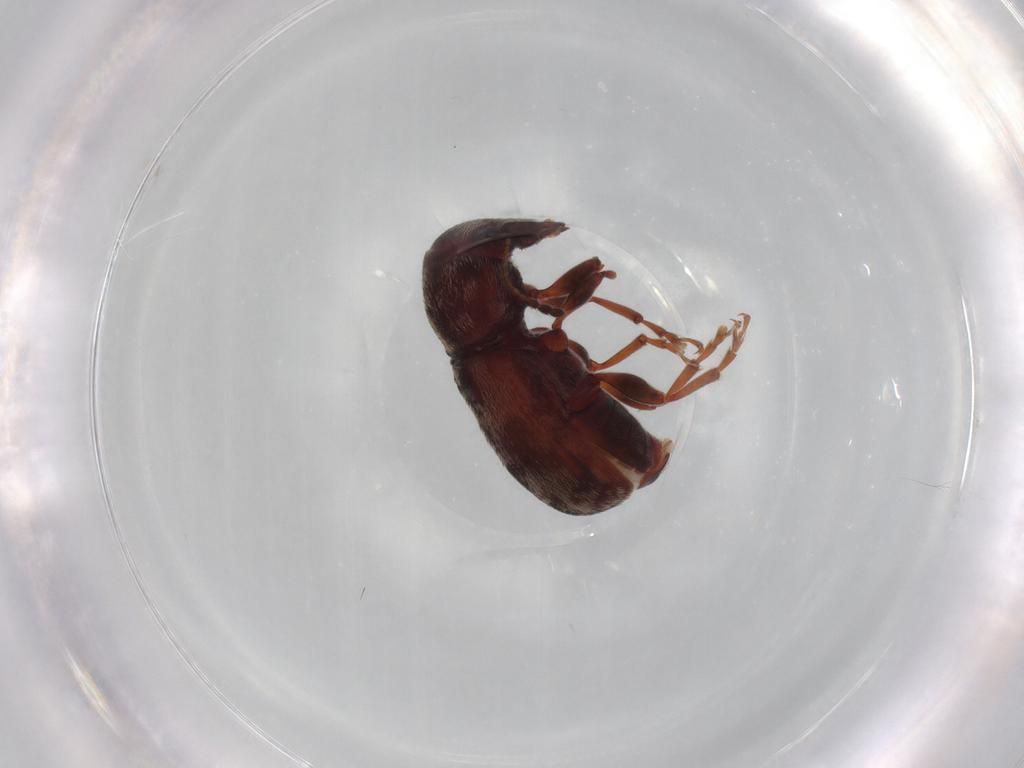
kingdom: Animalia
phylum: Arthropoda
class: Insecta
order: Coleoptera
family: Anthribidae
